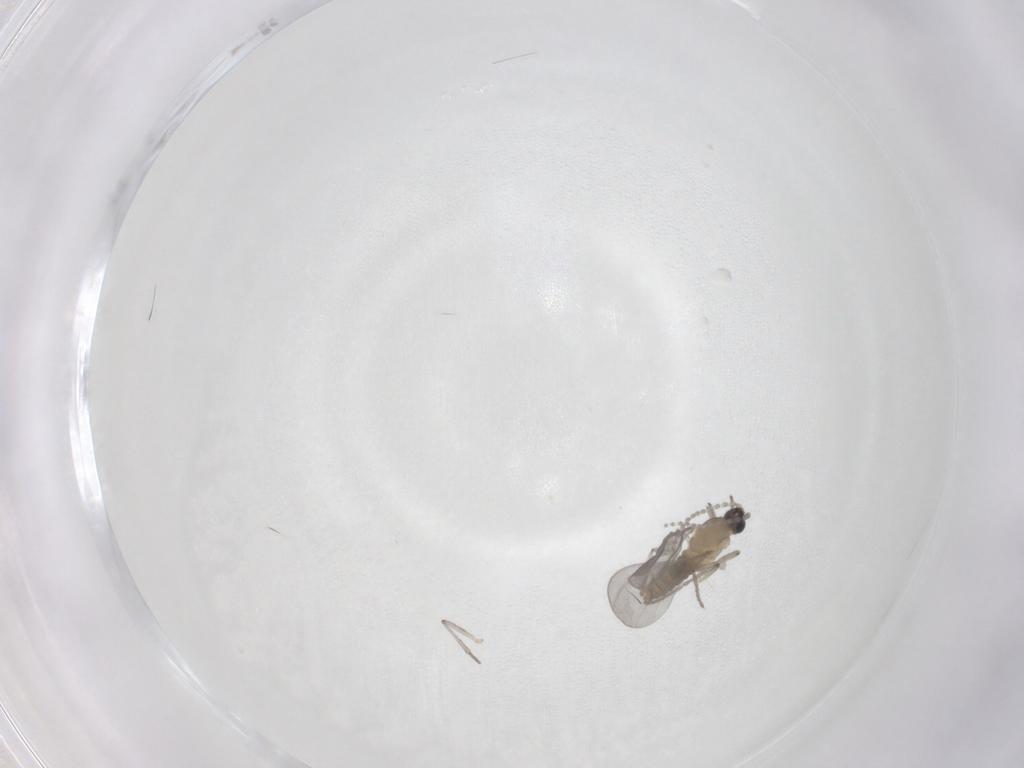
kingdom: Animalia
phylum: Arthropoda
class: Insecta
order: Diptera
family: Cecidomyiidae
